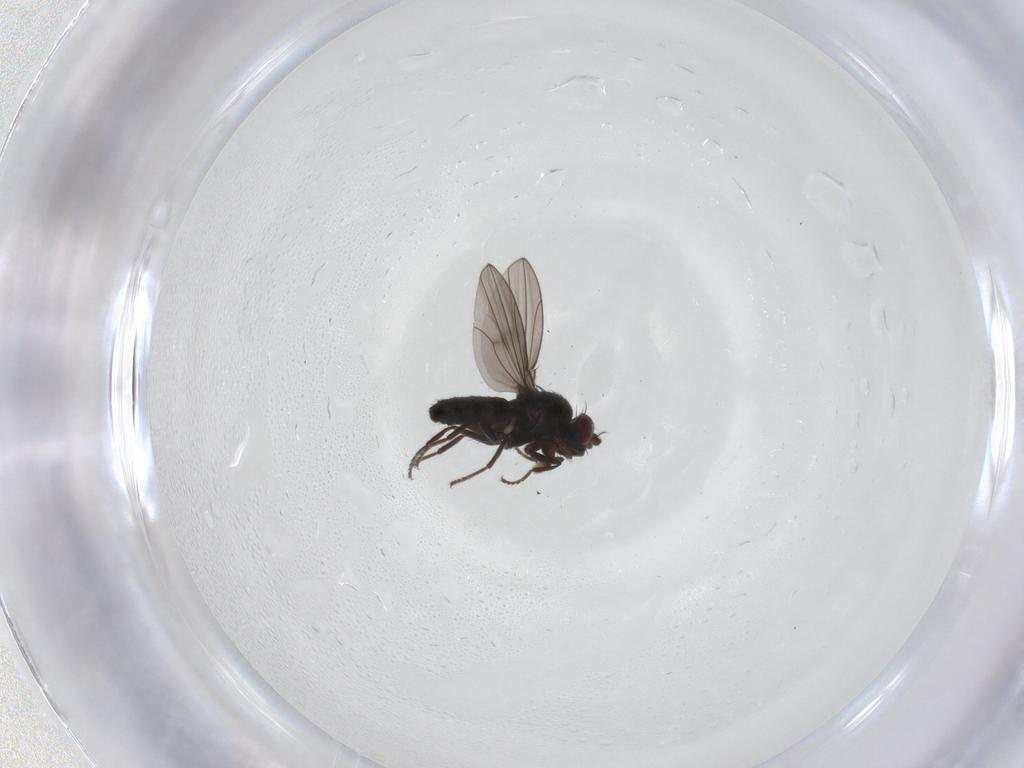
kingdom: Animalia
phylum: Arthropoda
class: Insecta
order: Diptera
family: Ephydridae
